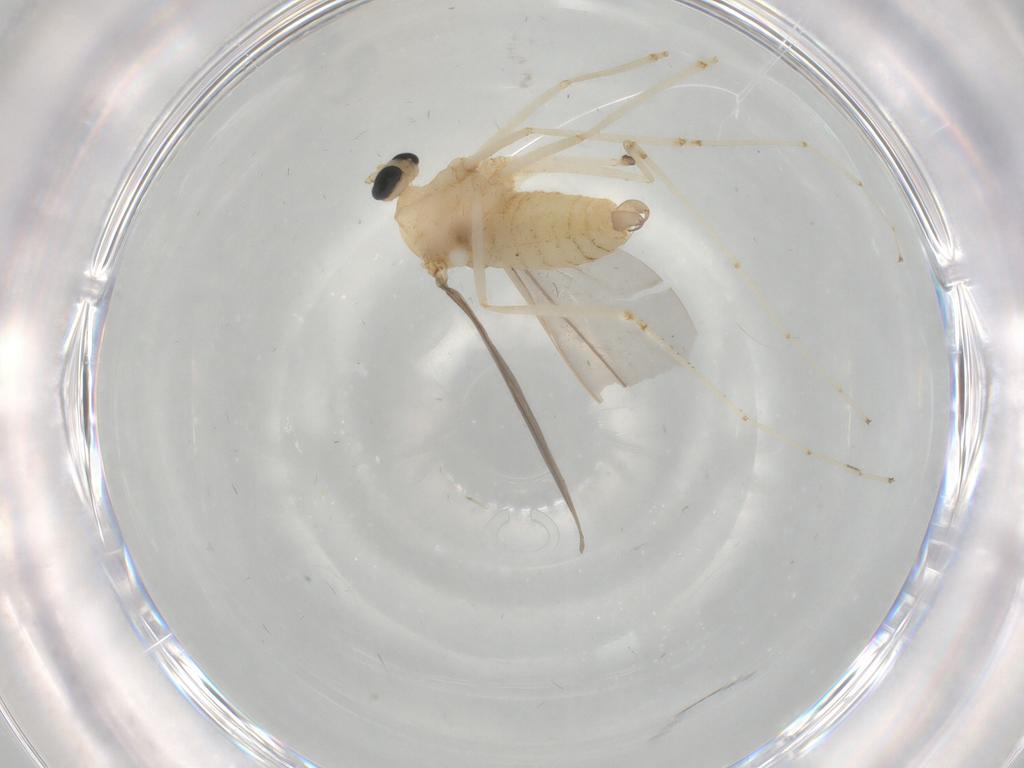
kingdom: Animalia
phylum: Arthropoda
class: Insecta
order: Diptera
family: Cecidomyiidae
